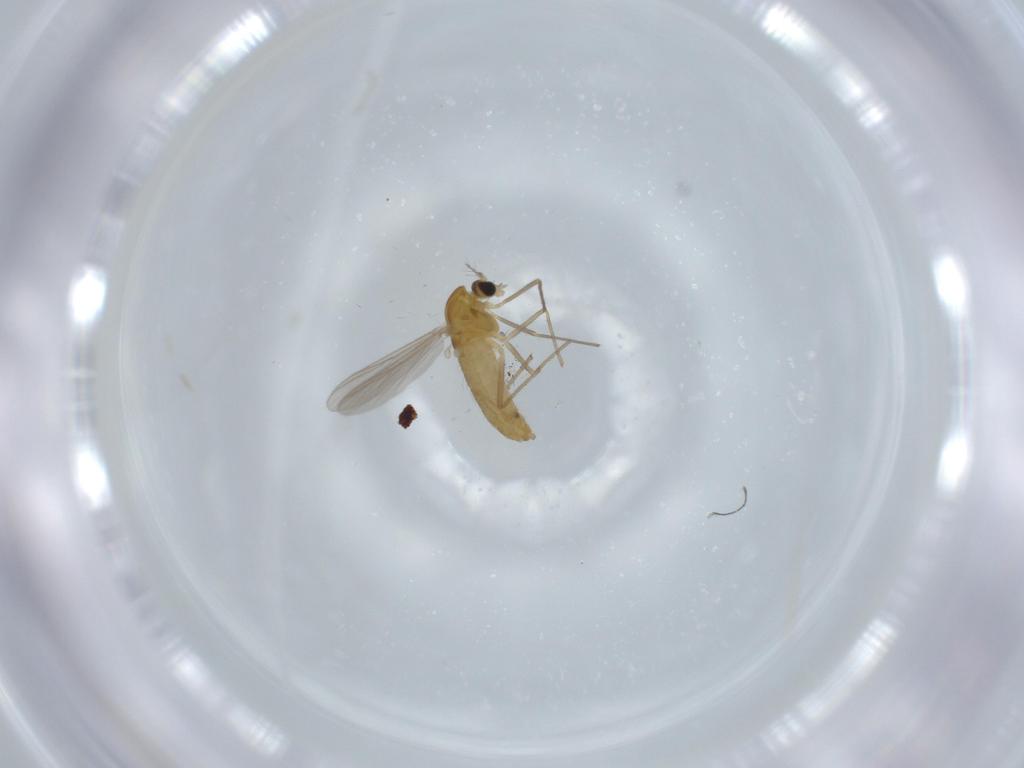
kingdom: Animalia
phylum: Arthropoda
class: Insecta
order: Diptera
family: Chironomidae
